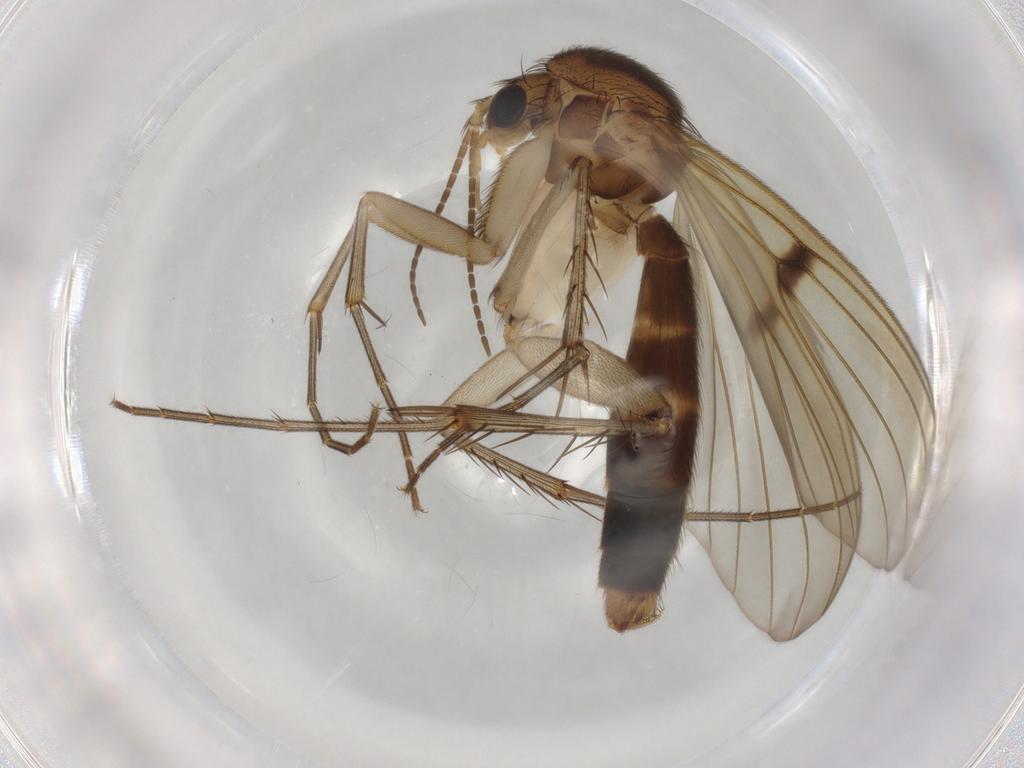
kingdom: Animalia
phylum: Arthropoda
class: Insecta
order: Diptera
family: Mycetophilidae
